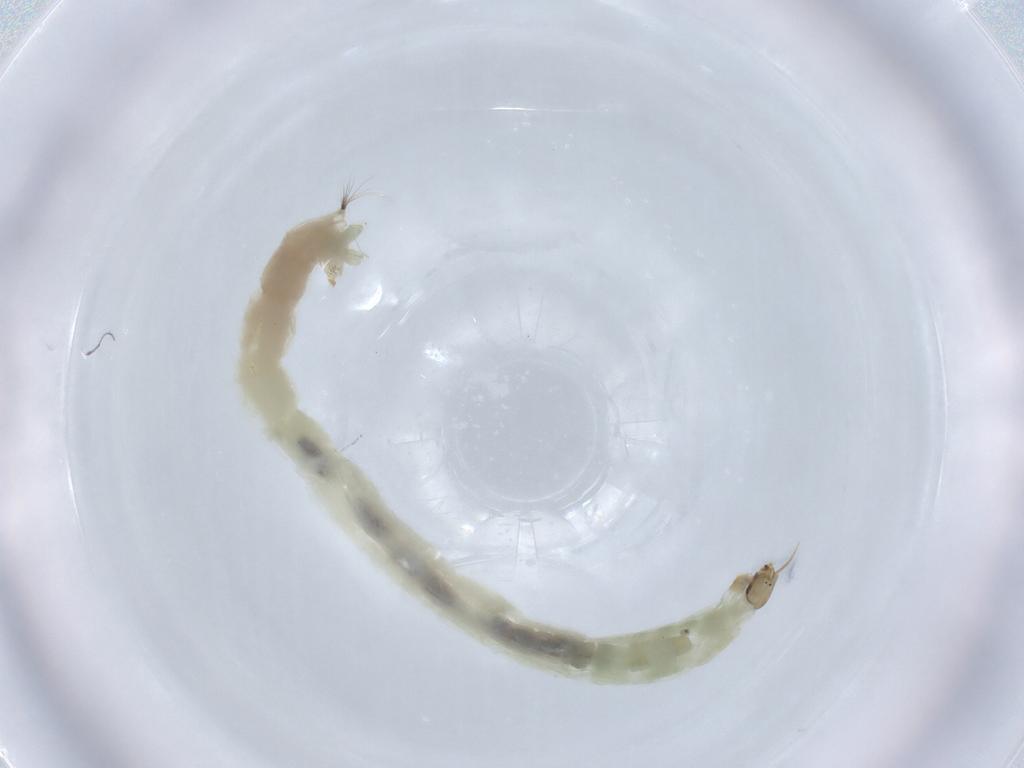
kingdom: Animalia
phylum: Arthropoda
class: Insecta
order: Diptera
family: Chironomidae
